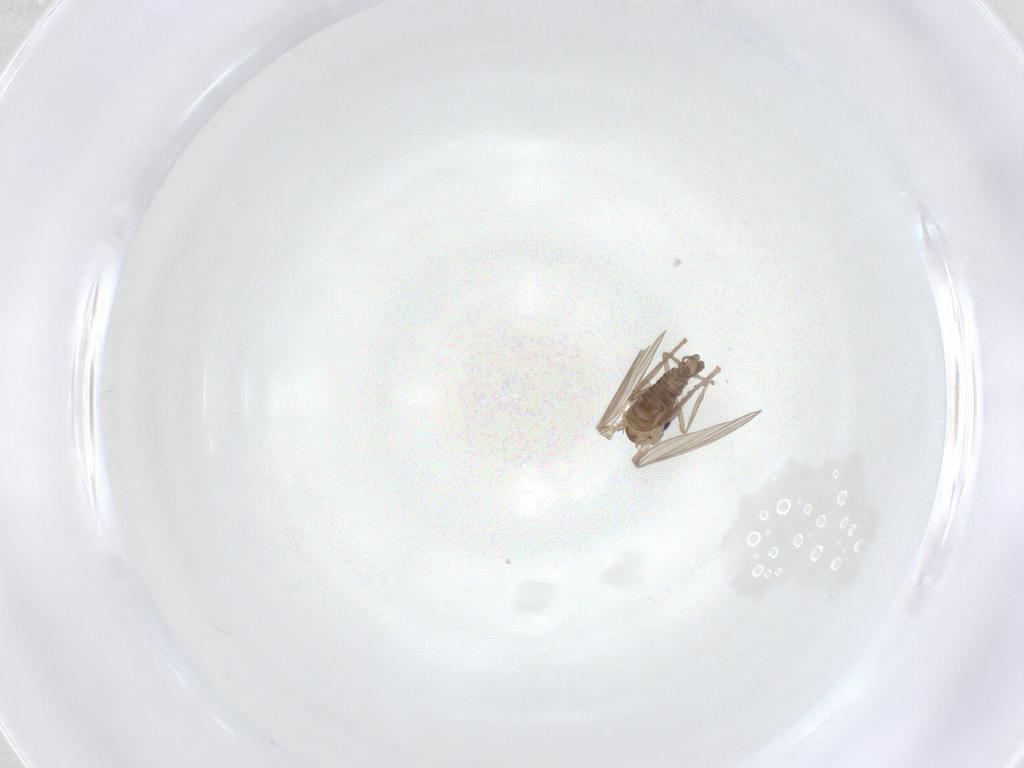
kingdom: Animalia
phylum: Arthropoda
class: Insecta
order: Diptera
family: Psychodidae
